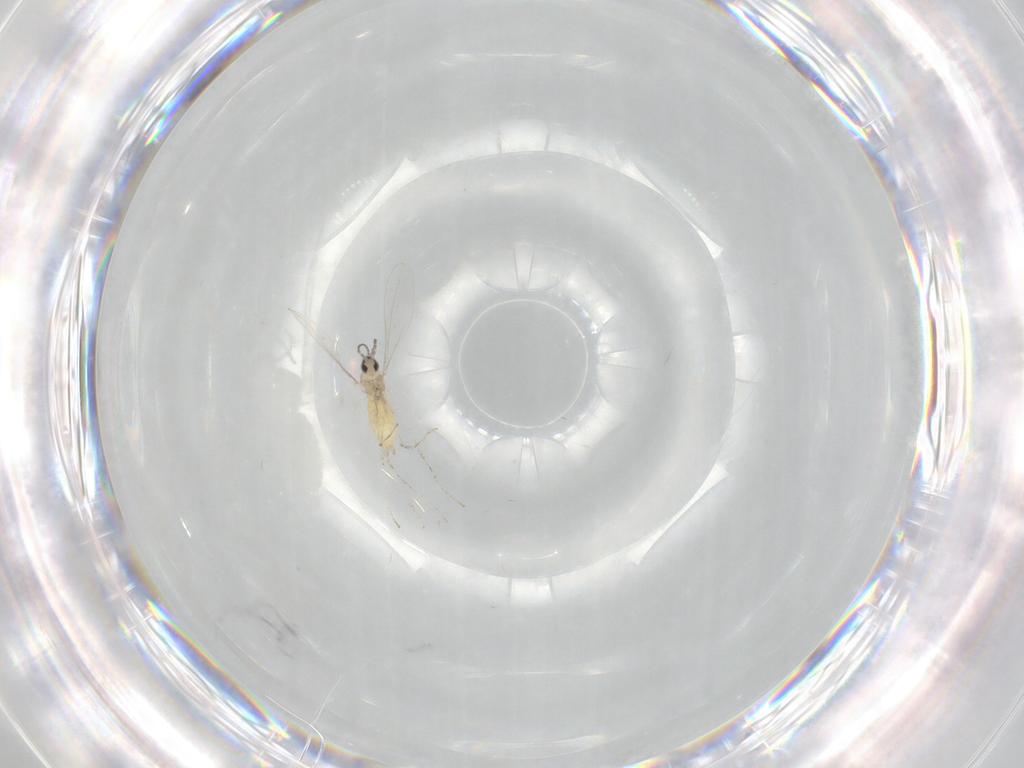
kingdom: Animalia
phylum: Arthropoda
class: Insecta
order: Diptera
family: Cecidomyiidae
